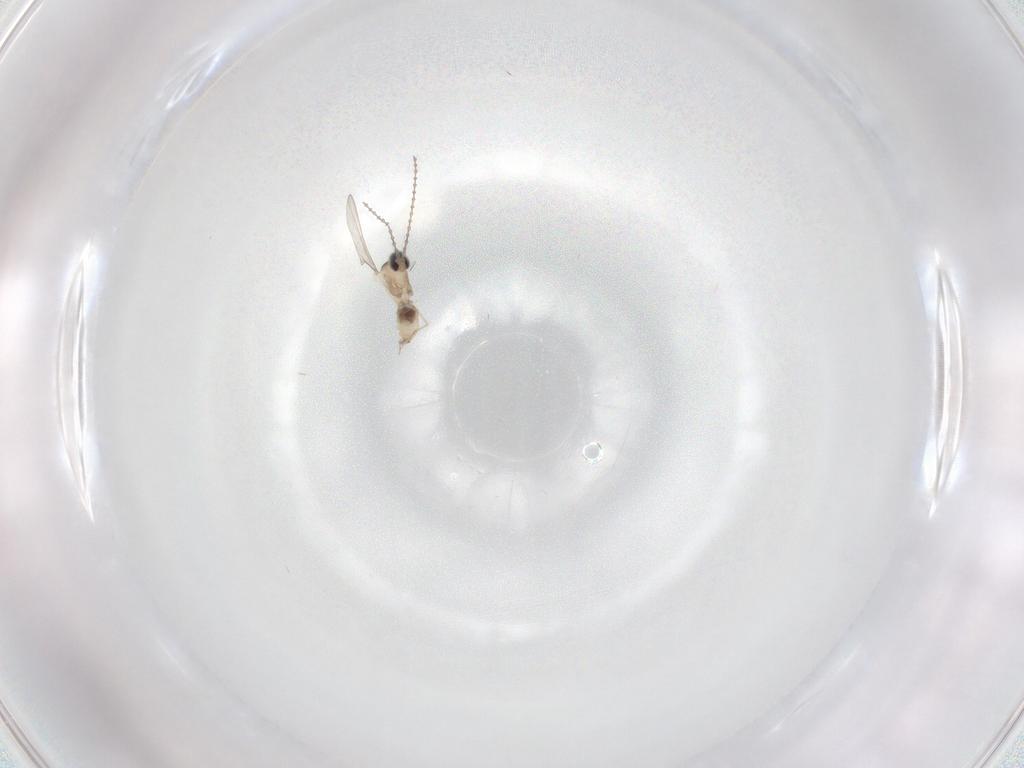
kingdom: Animalia
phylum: Arthropoda
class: Insecta
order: Diptera
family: Cecidomyiidae
